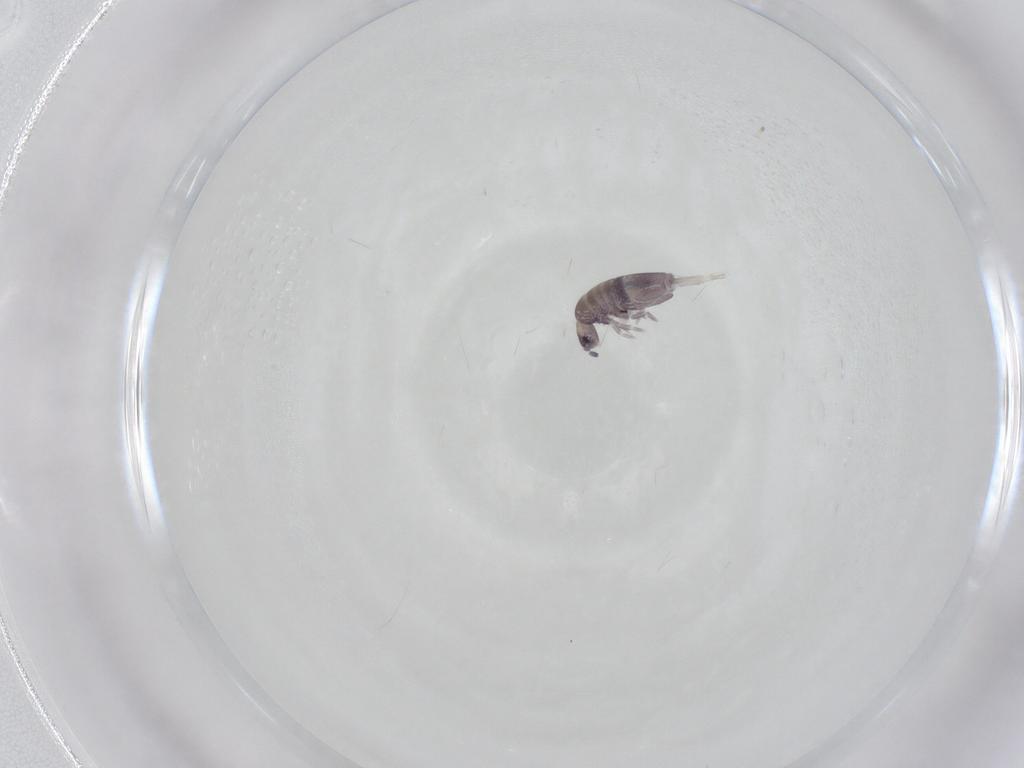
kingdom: Animalia
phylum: Arthropoda
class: Collembola
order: Entomobryomorpha
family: Entomobryidae
